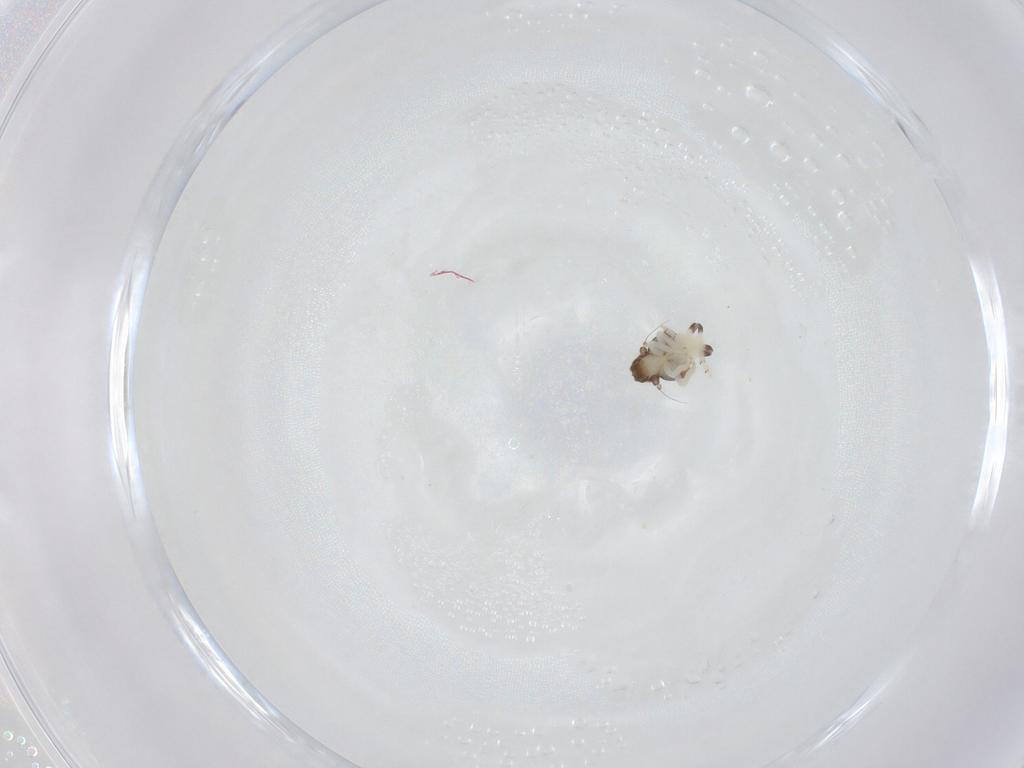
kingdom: Animalia
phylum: Arthropoda
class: Insecta
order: Hemiptera
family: Nogodinidae
